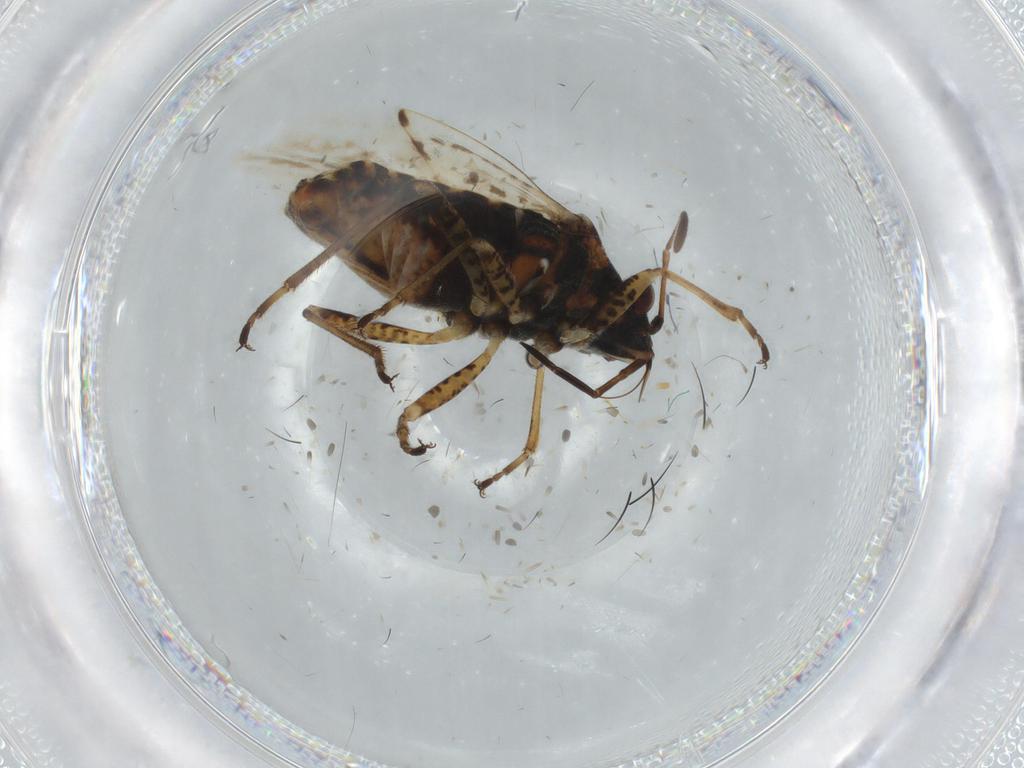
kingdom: Animalia
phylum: Arthropoda
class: Insecta
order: Hemiptera
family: Lygaeidae
